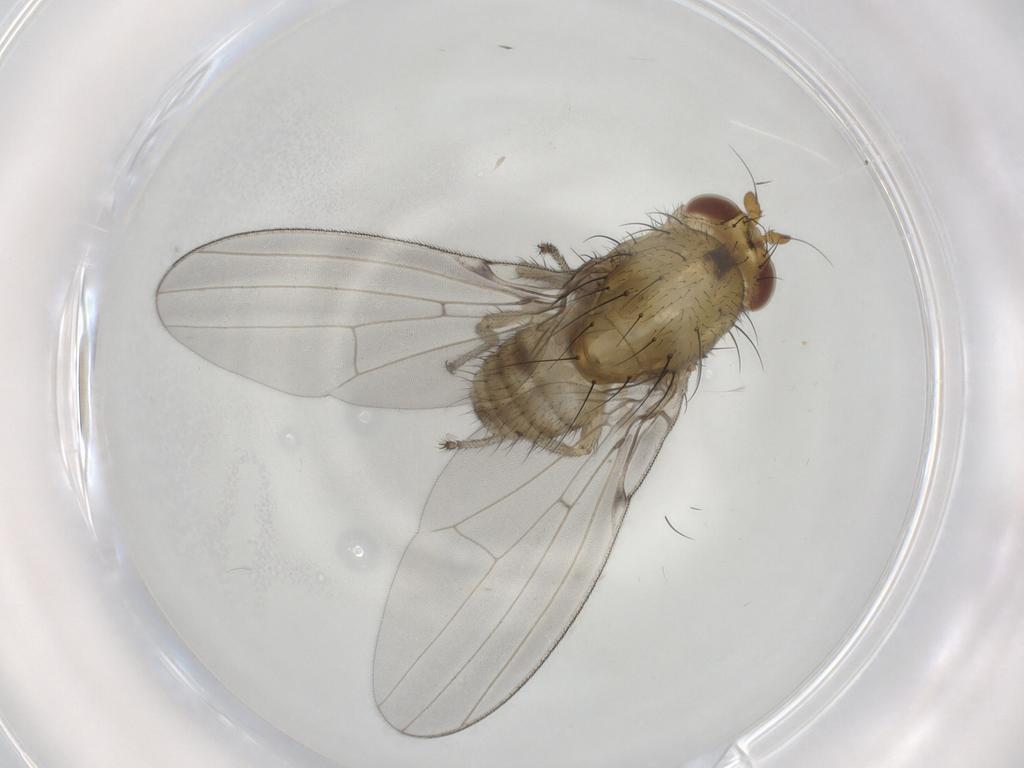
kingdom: Animalia
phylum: Arthropoda
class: Insecta
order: Diptera
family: Lauxaniidae
